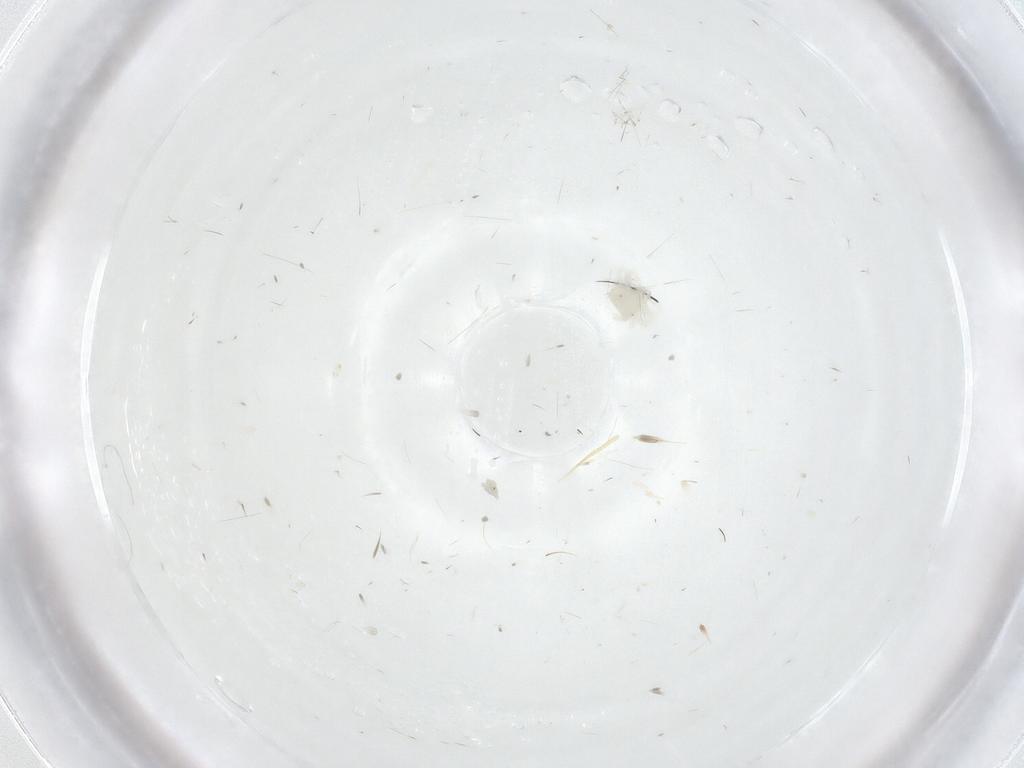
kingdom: Animalia
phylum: Arthropoda
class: Arachnida
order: Trombidiformes
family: Anystidae
